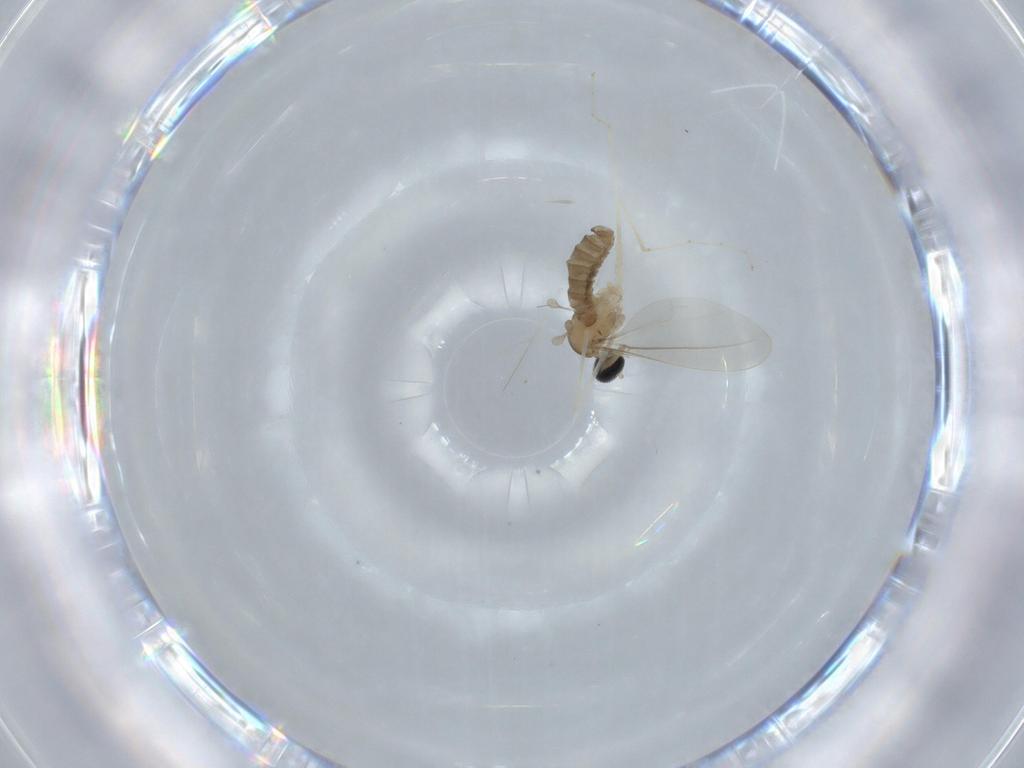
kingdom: Animalia
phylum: Arthropoda
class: Insecta
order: Diptera
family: Cecidomyiidae
